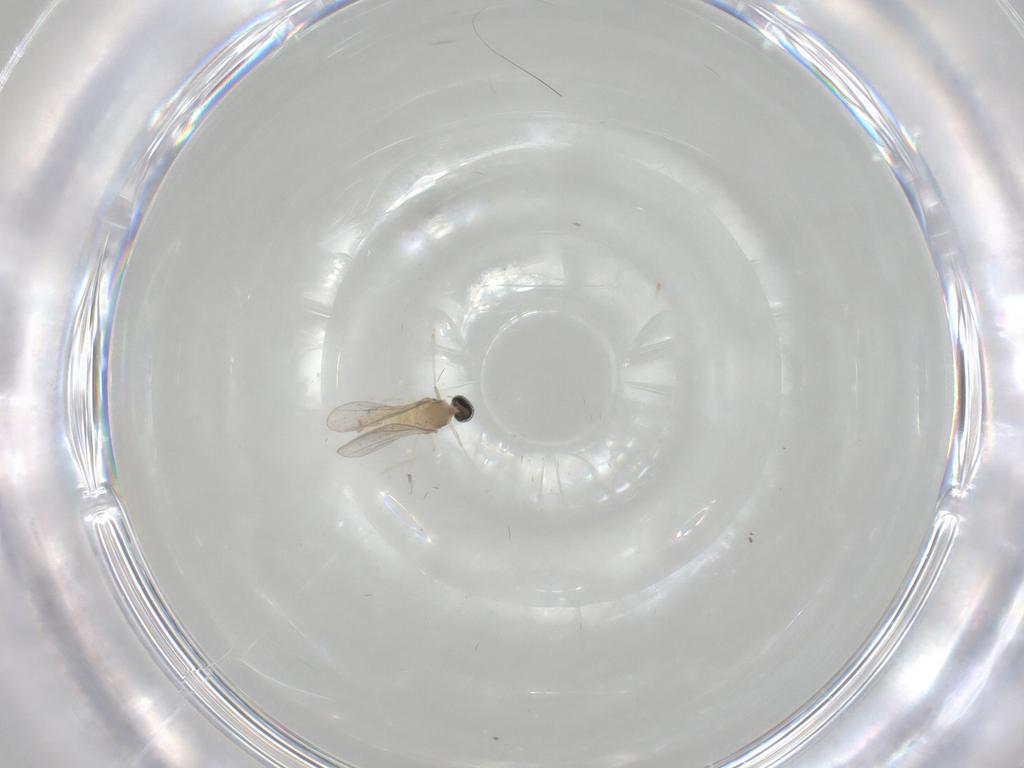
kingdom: Animalia
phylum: Arthropoda
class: Insecta
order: Diptera
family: Cecidomyiidae
